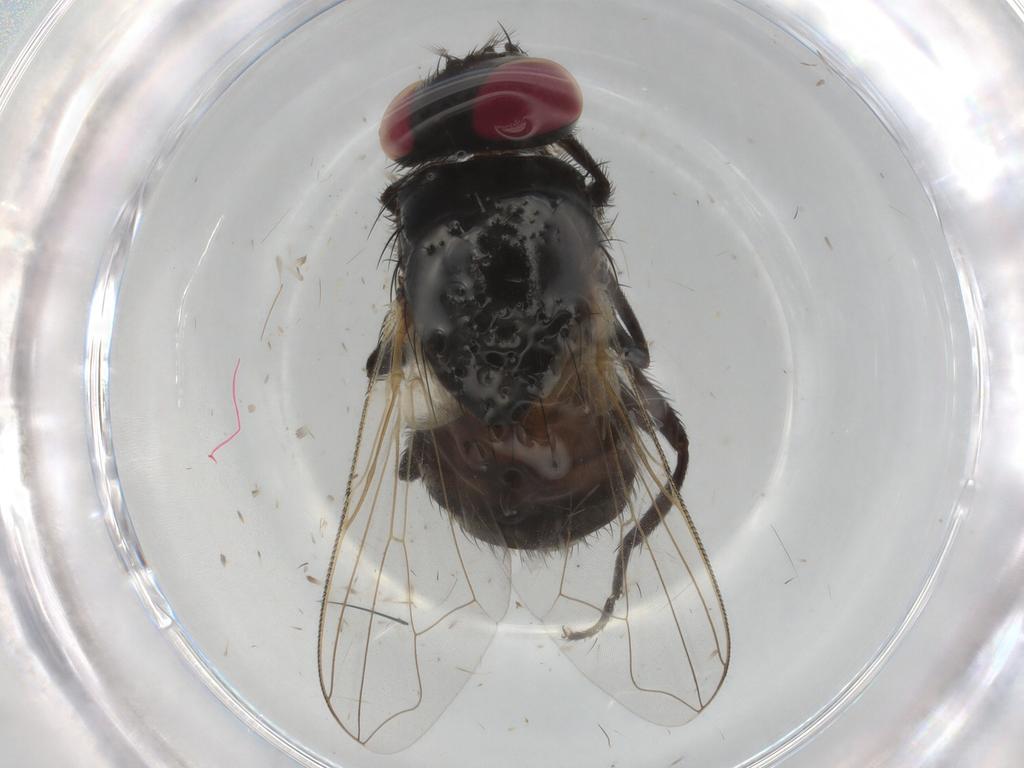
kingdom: Animalia
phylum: Arthropoda
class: Insecta
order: Diptera
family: Muscidae
